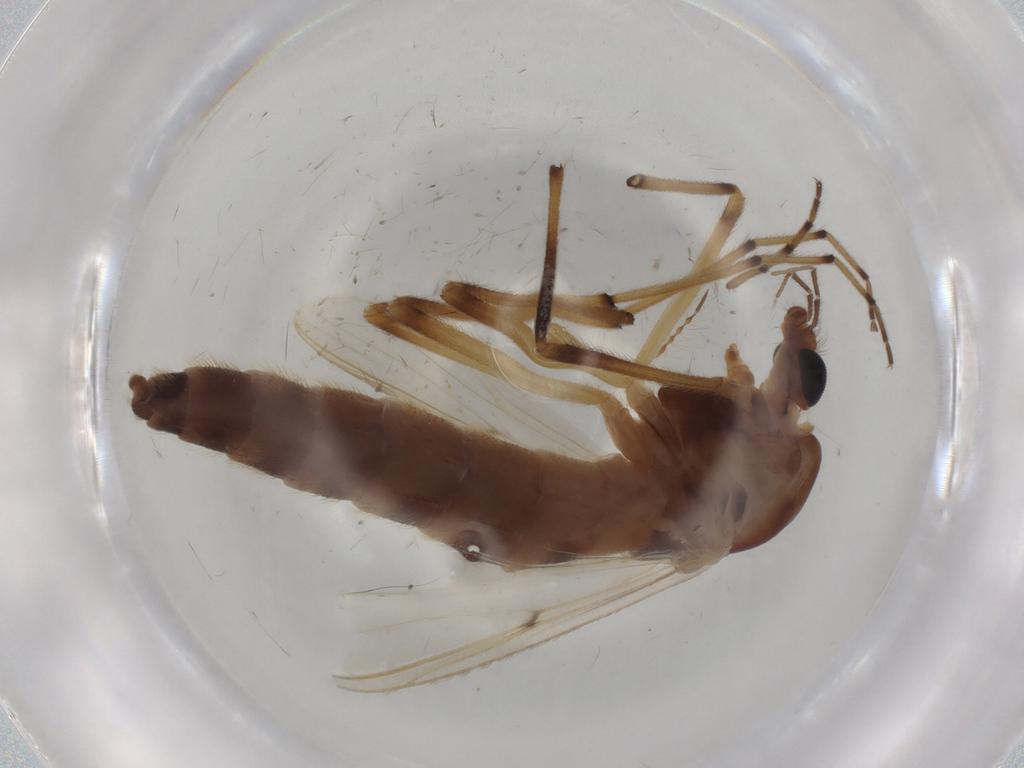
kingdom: Animalia
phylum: Arthropoda
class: Insecta
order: Diptera
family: Chironomidae
